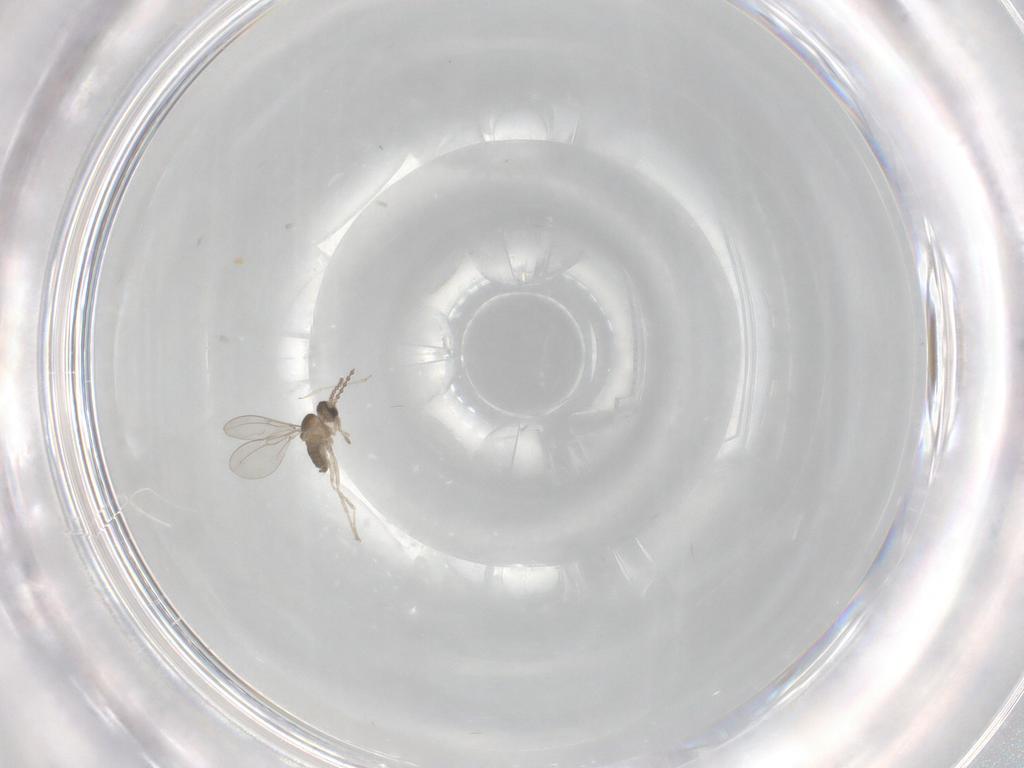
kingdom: Animalia
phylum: Arthropoda
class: Insecta
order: Diptera
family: Cecidomyiidae
